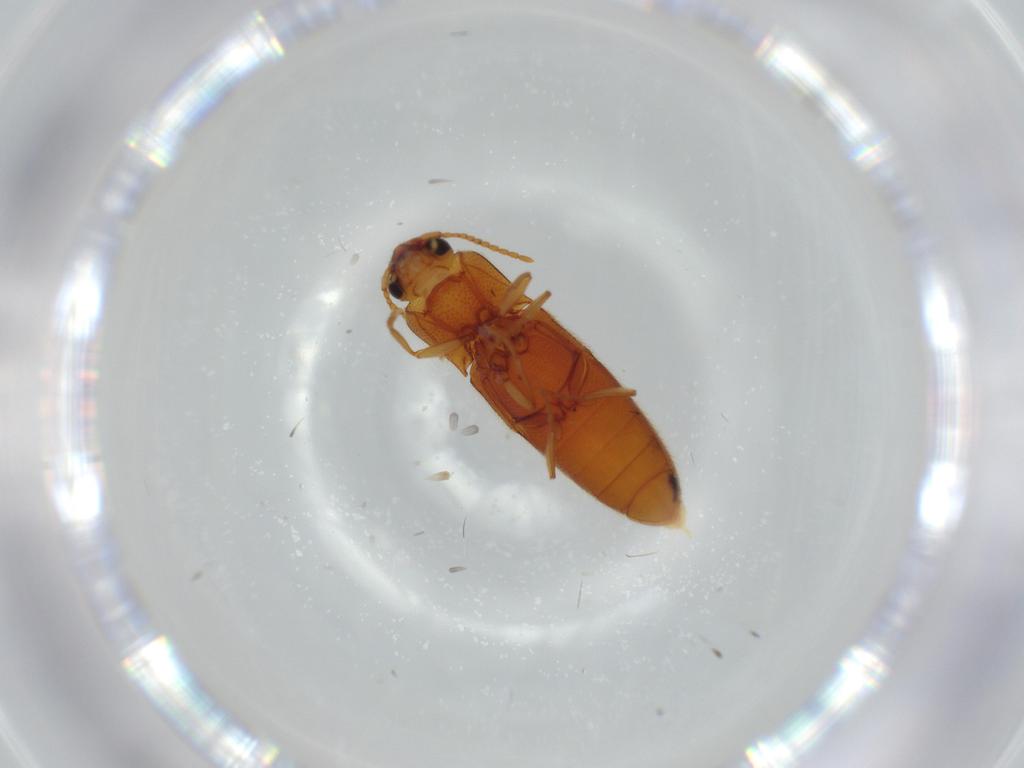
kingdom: Animalia
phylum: Arthropoda
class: Insecta
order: Coleoptera
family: Elateridae
